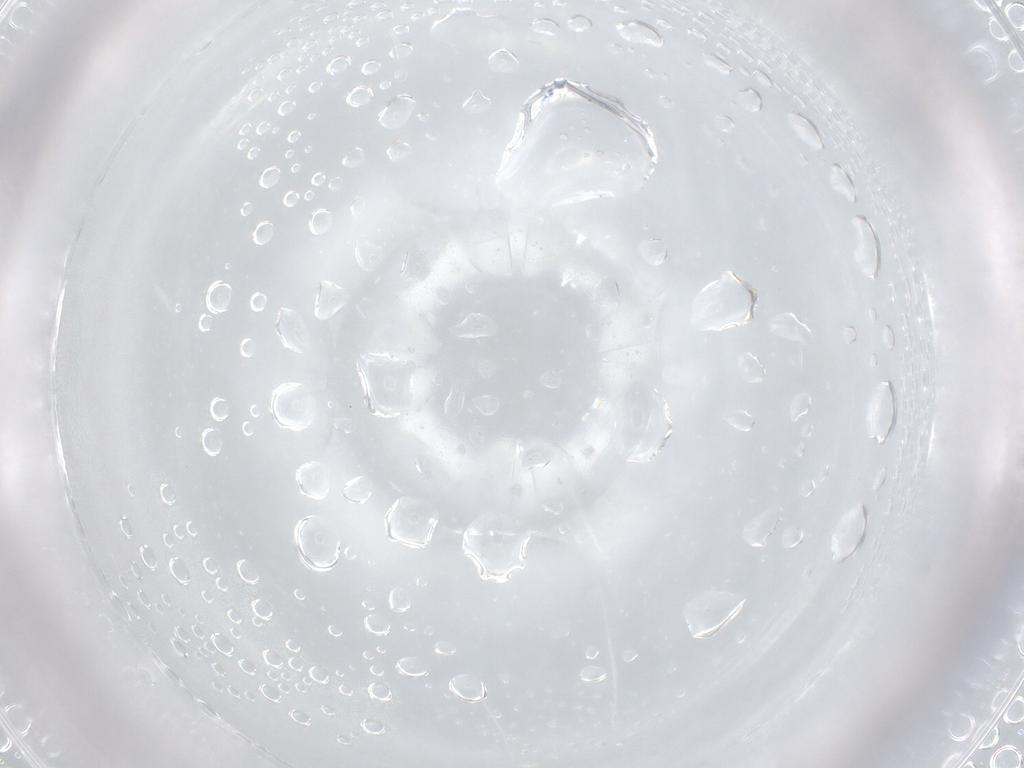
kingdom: Animalia
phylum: Arthropoda
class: Insecta
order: Diptera
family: Chironomidae
